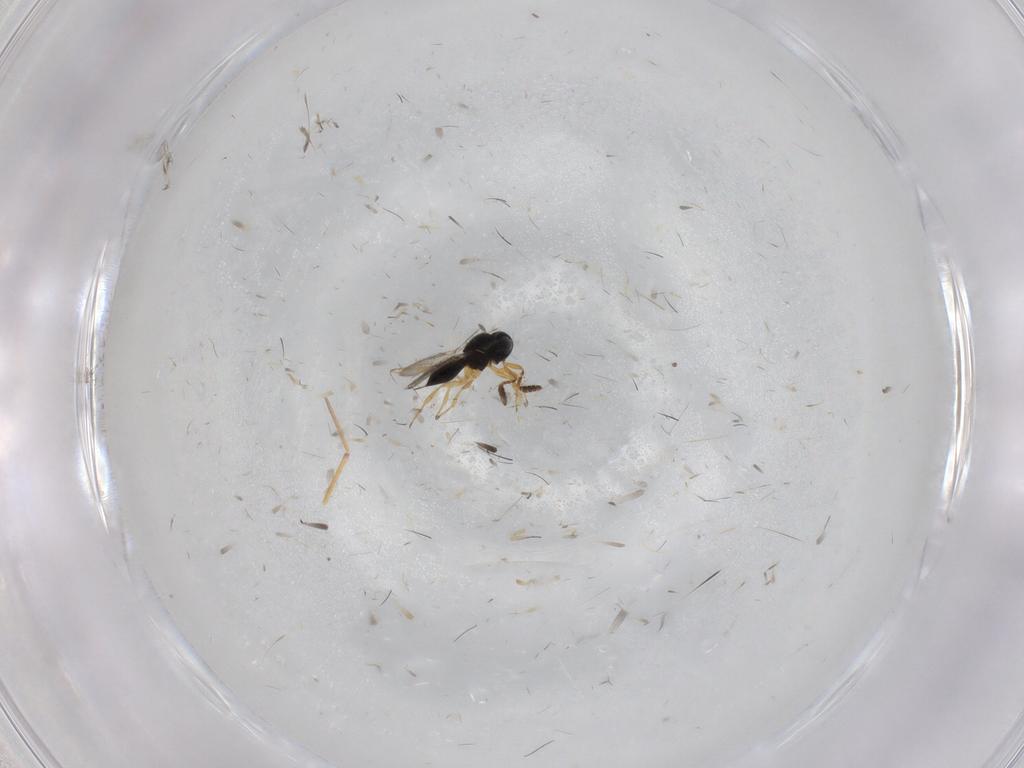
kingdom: Animalia
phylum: Arthropoda
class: Insecta
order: Hymenoptera
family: Scelionidae
